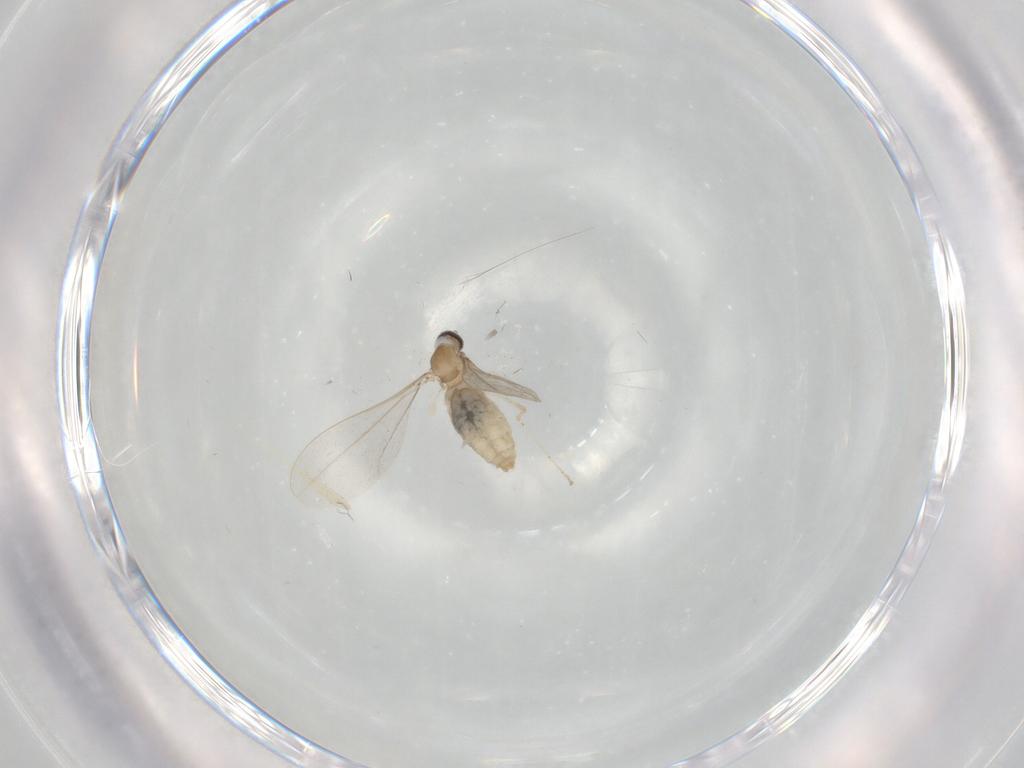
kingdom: Animalia
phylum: Arthropoda
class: Insecta
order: Diptera
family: Cecidomyiidae
